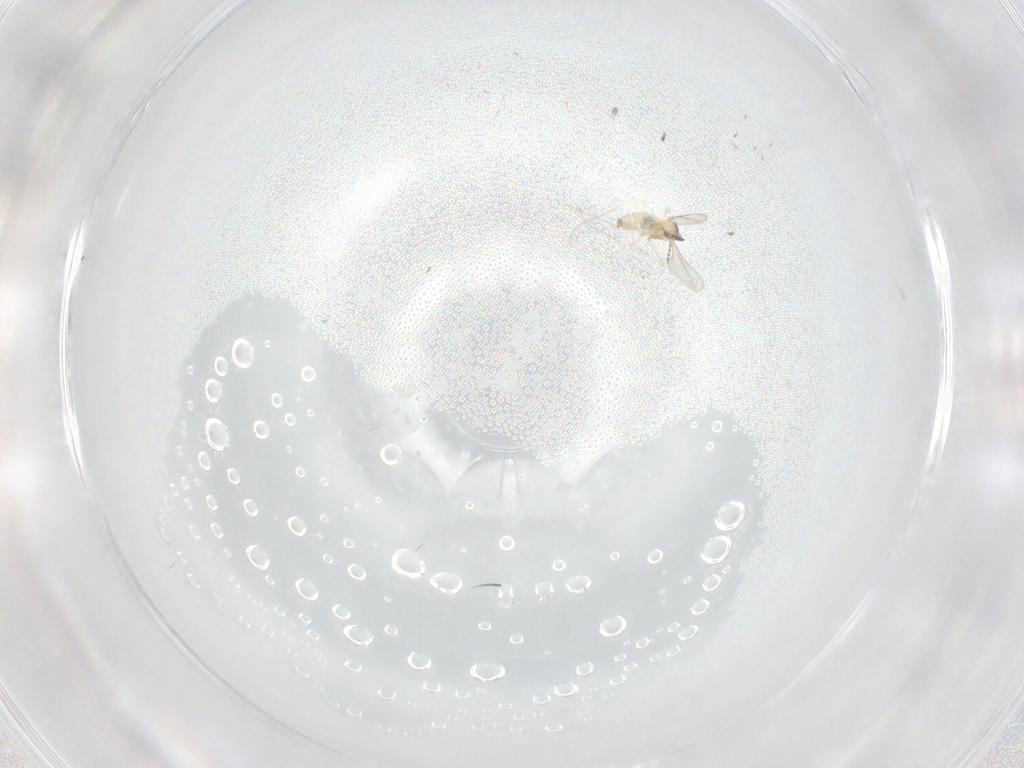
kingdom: Animalia
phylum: Arthropoda
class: Insecta
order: Diptera
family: Cecidomyiidae
